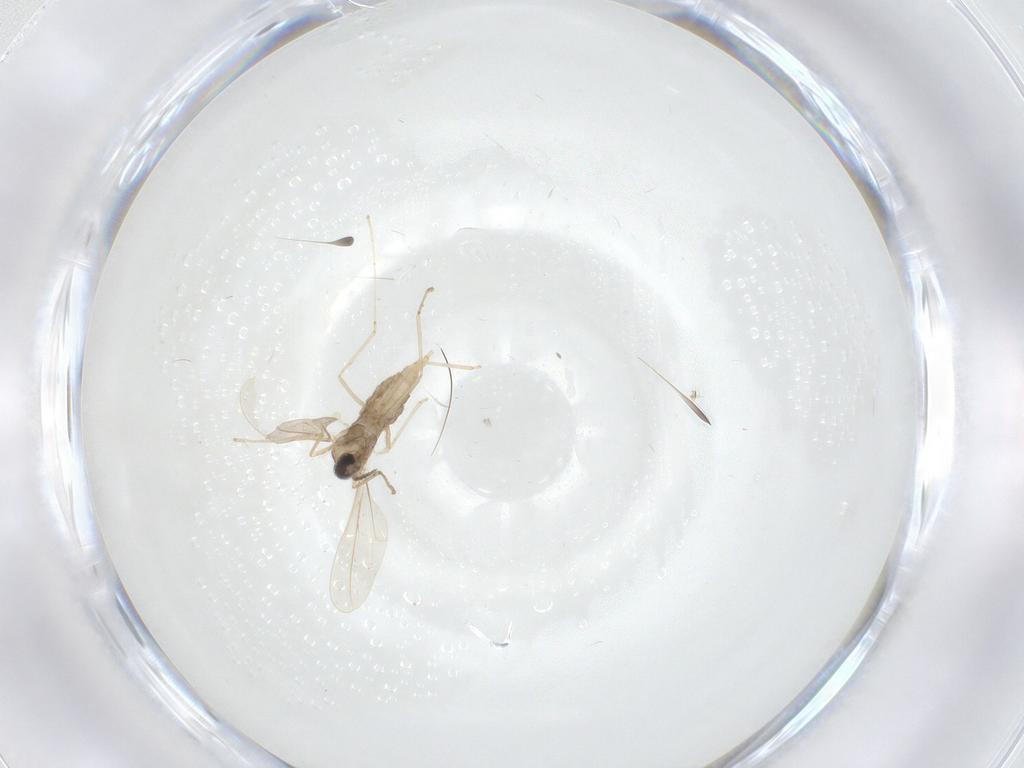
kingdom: Animalia
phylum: Arthropoda
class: Insecta
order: Diptera
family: Cecidomyiidae
